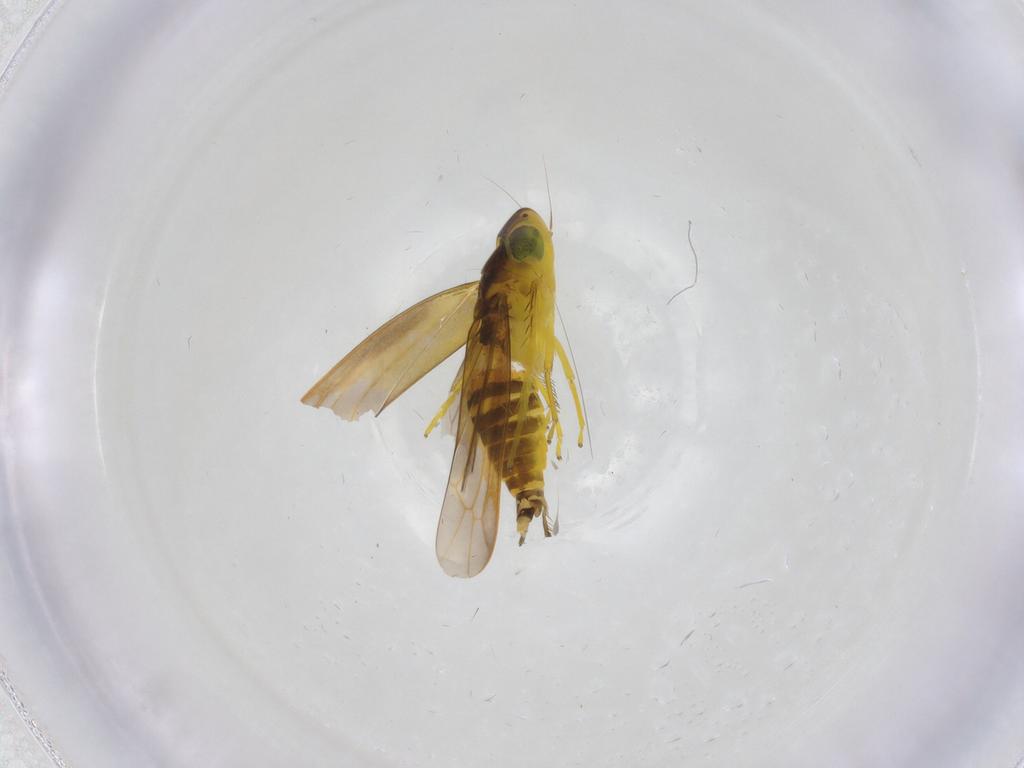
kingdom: Animalia
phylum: Arthropoda
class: Insecta
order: Hemiptera
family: Cicadellidae
